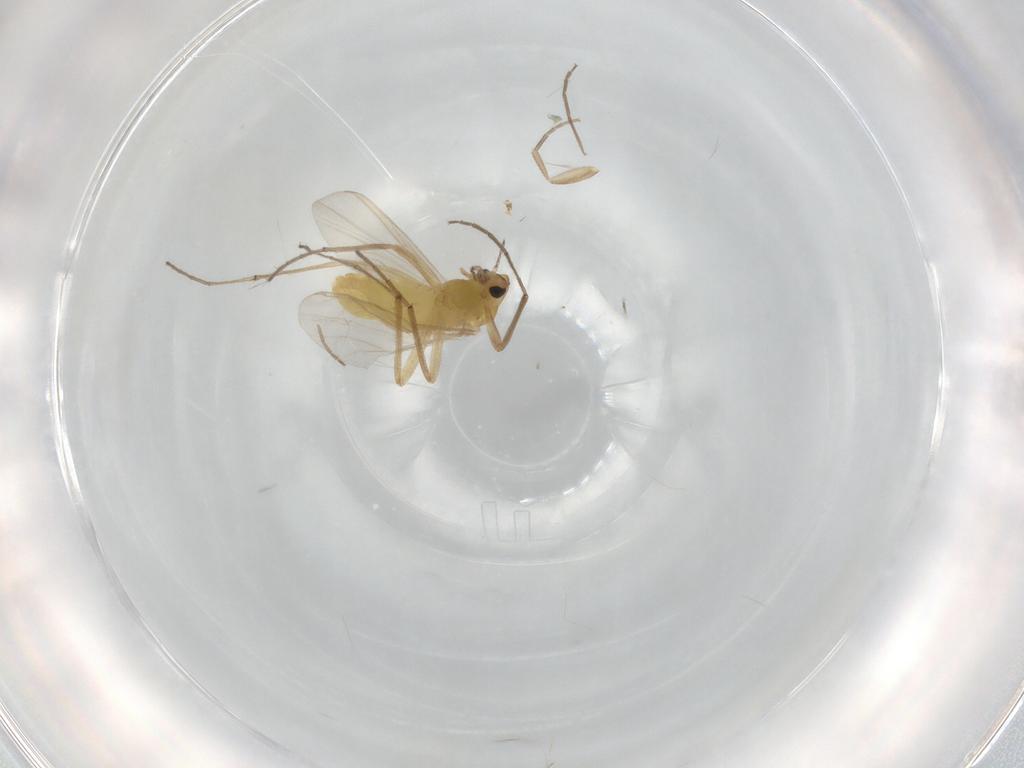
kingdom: Animalia
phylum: Arthropoda
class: Insecta
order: Diptera
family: Chironomidae
